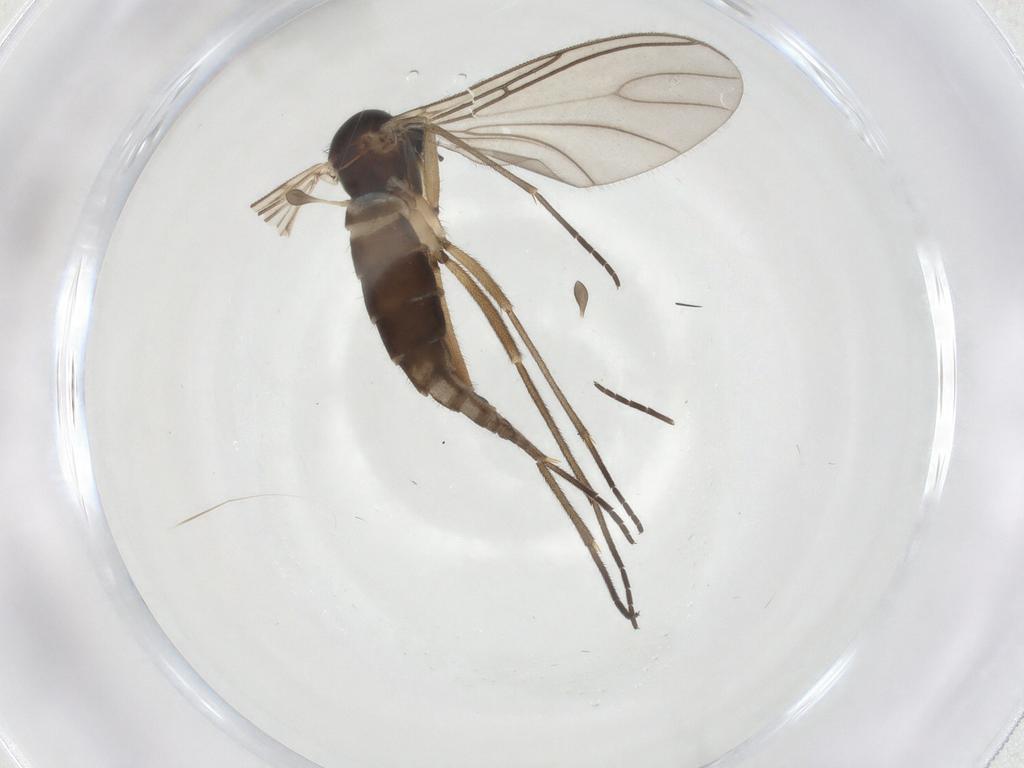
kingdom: Animalia
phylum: Arthropoda
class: Insecta
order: Diptera
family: Sciaridae
